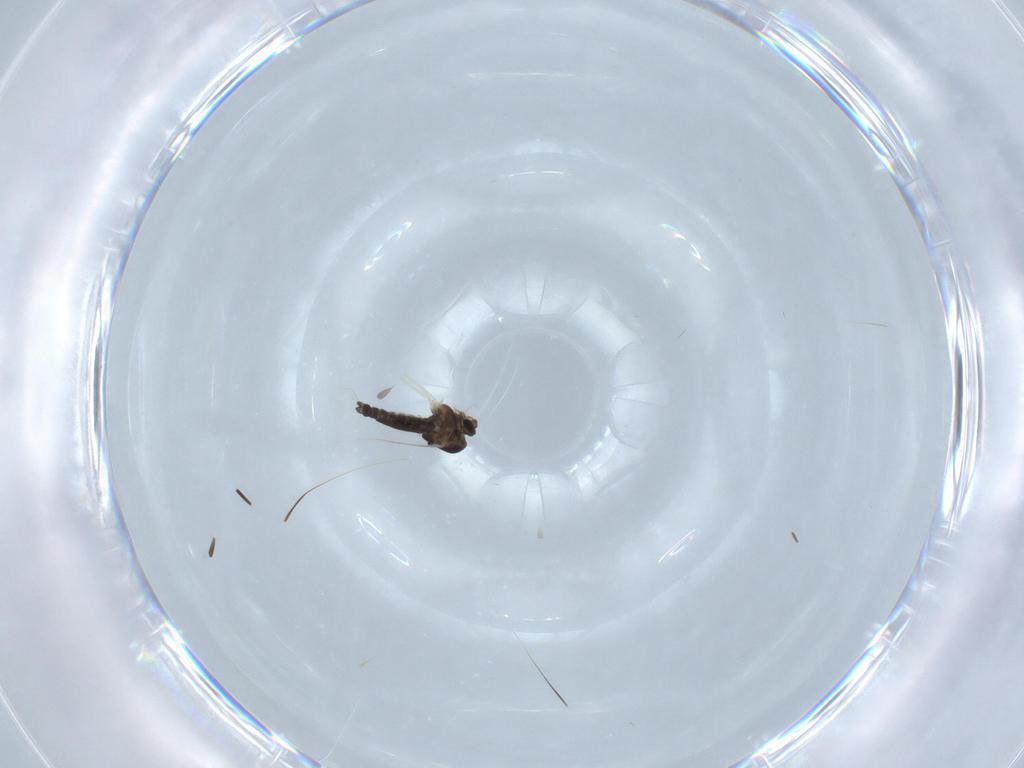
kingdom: Animalia
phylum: Arthropoda
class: Insecta
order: Diptera
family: Chironomidae
